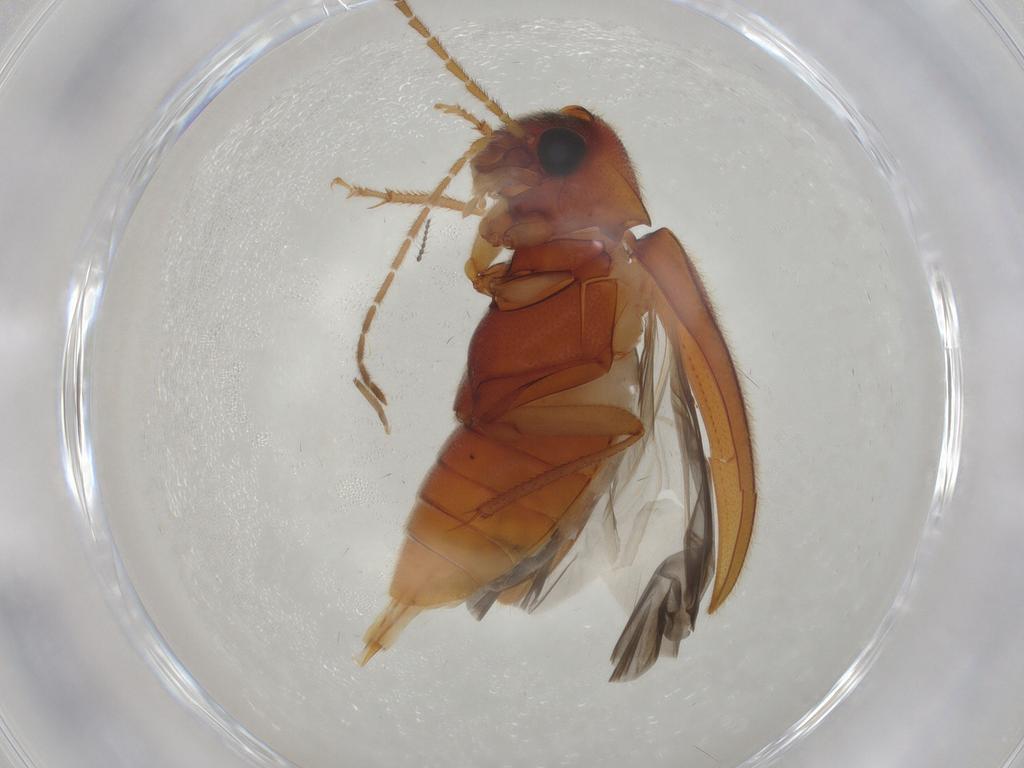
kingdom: Animalia
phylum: Arthropoda
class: Insecta
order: Coleoptera
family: Ptilodactylidae
